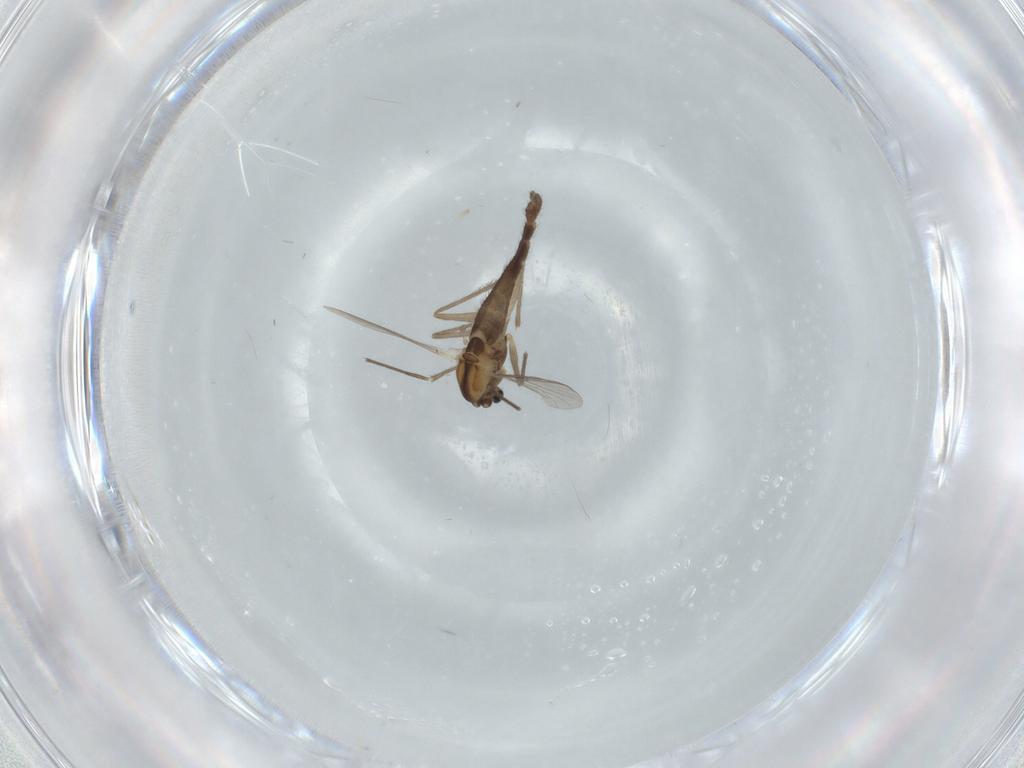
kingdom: Animalia
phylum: Arthropoda
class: Insecta
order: Diptera
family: Chironomidae
